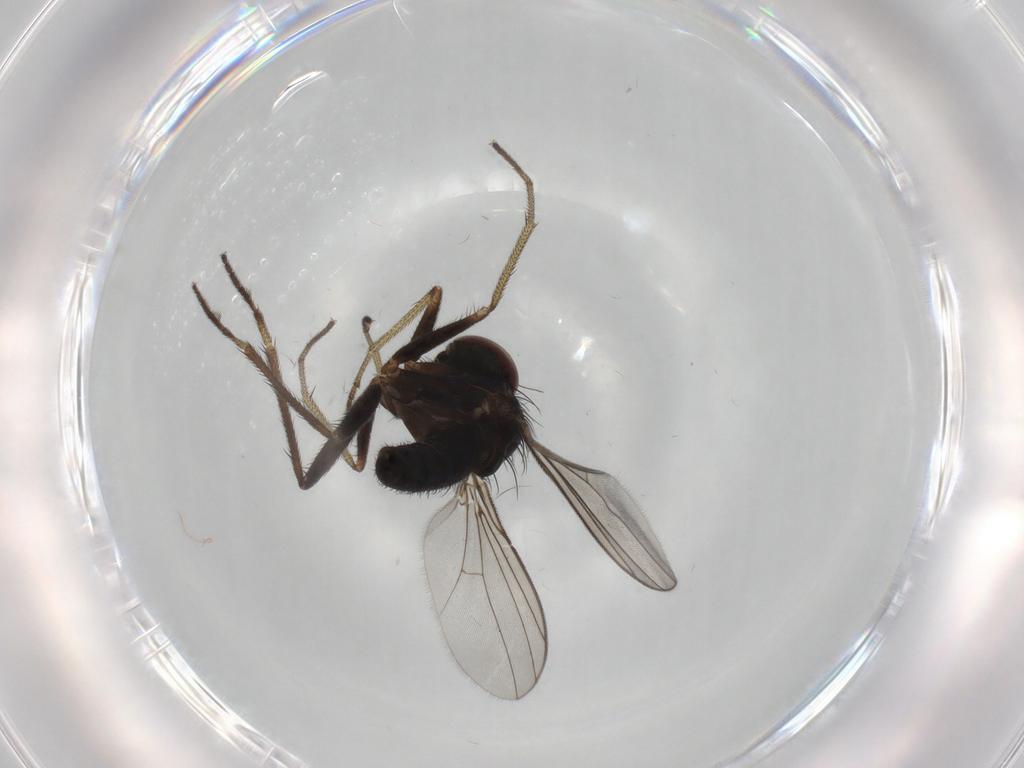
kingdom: Animalia
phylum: Arthropoda
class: Insecta
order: Diptera
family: Dolichopodidae
